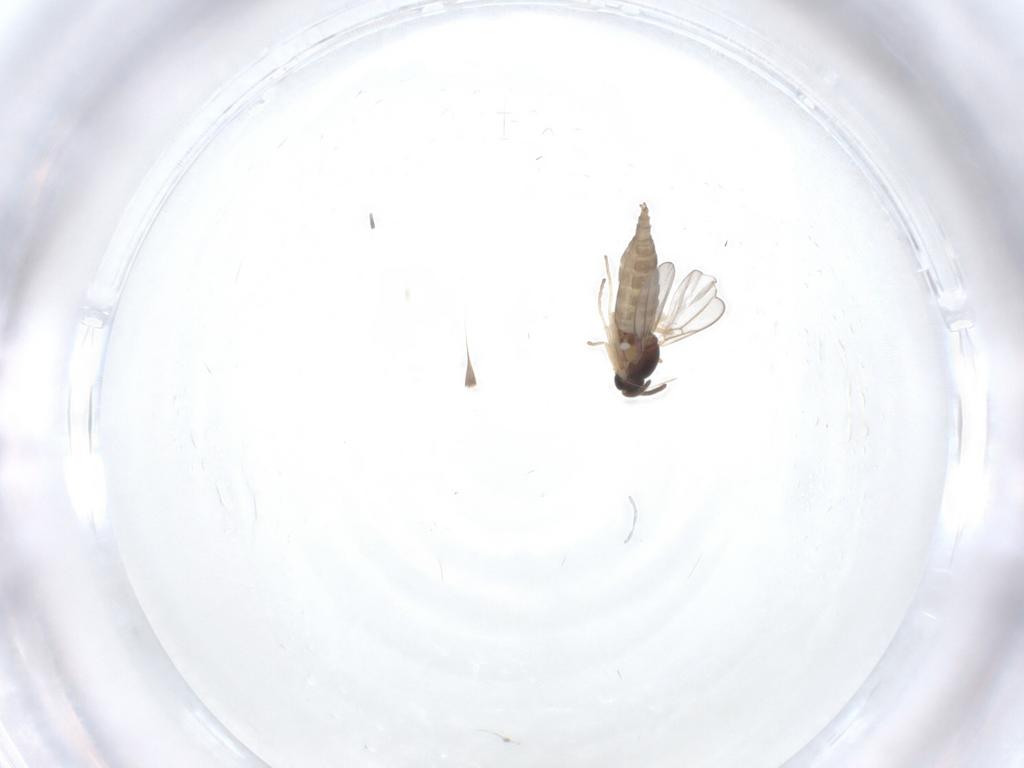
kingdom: Animalia
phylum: Arthropoda
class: Insecta
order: Diptera
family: Cecidomyiidae
